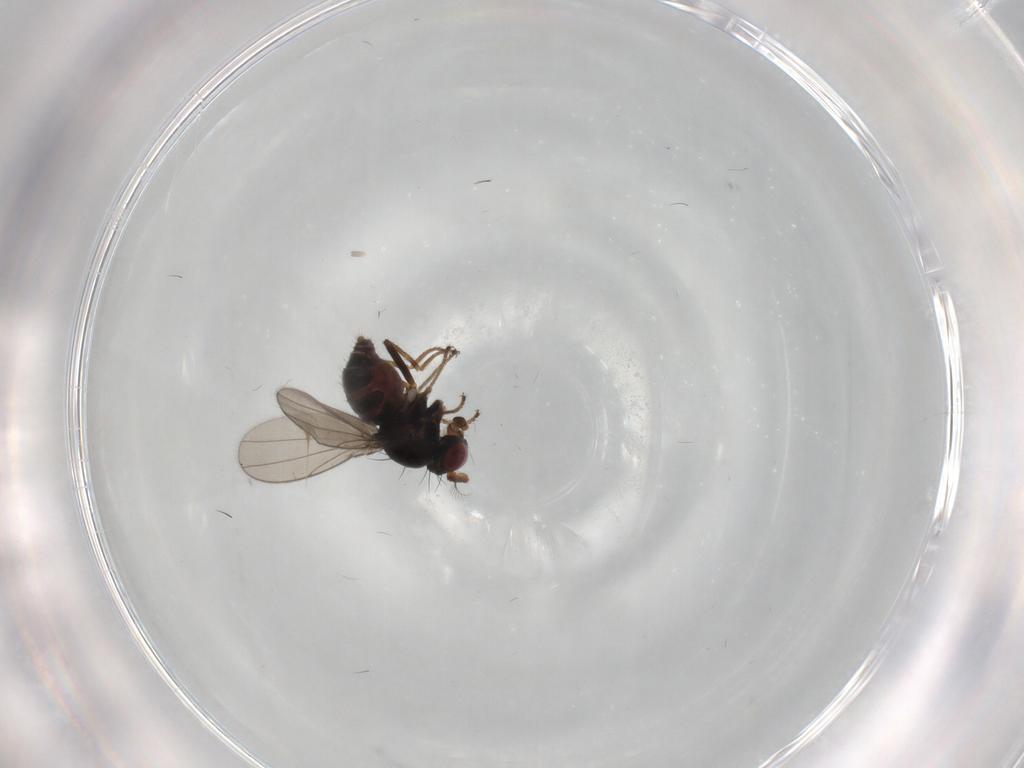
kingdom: Animalia
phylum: Arthropoda
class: Insecta
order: Diptera
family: Ephydridae
